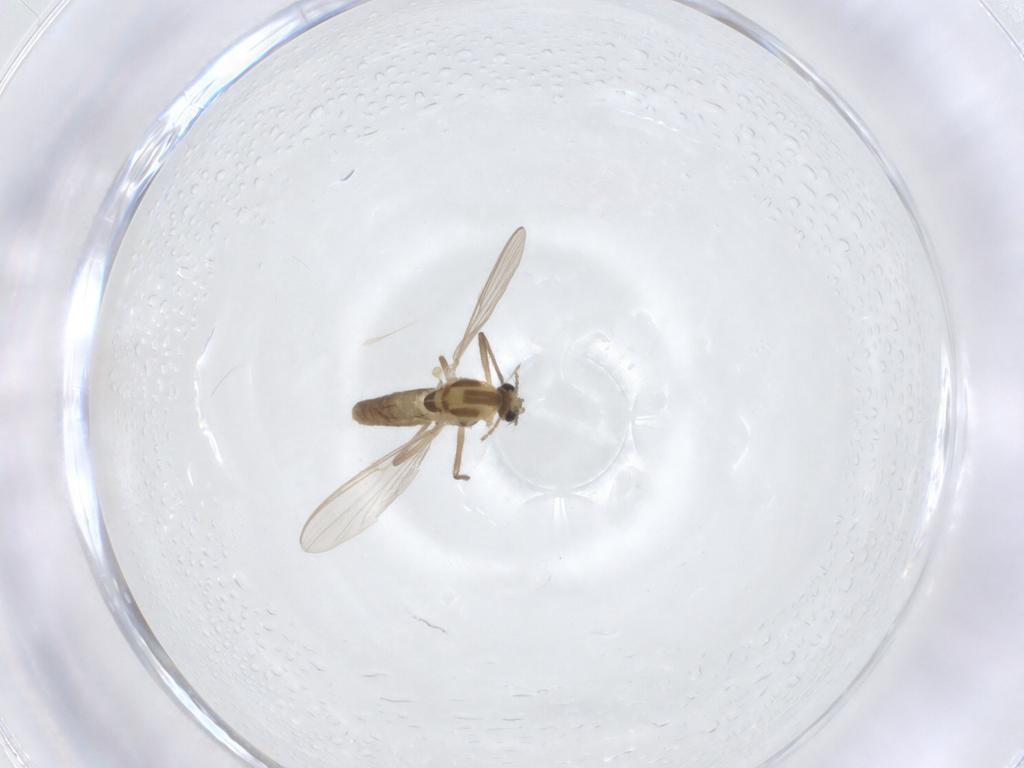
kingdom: Animalia
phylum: Arthropoda
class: Insecta
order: Diptera
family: Chironomidae
